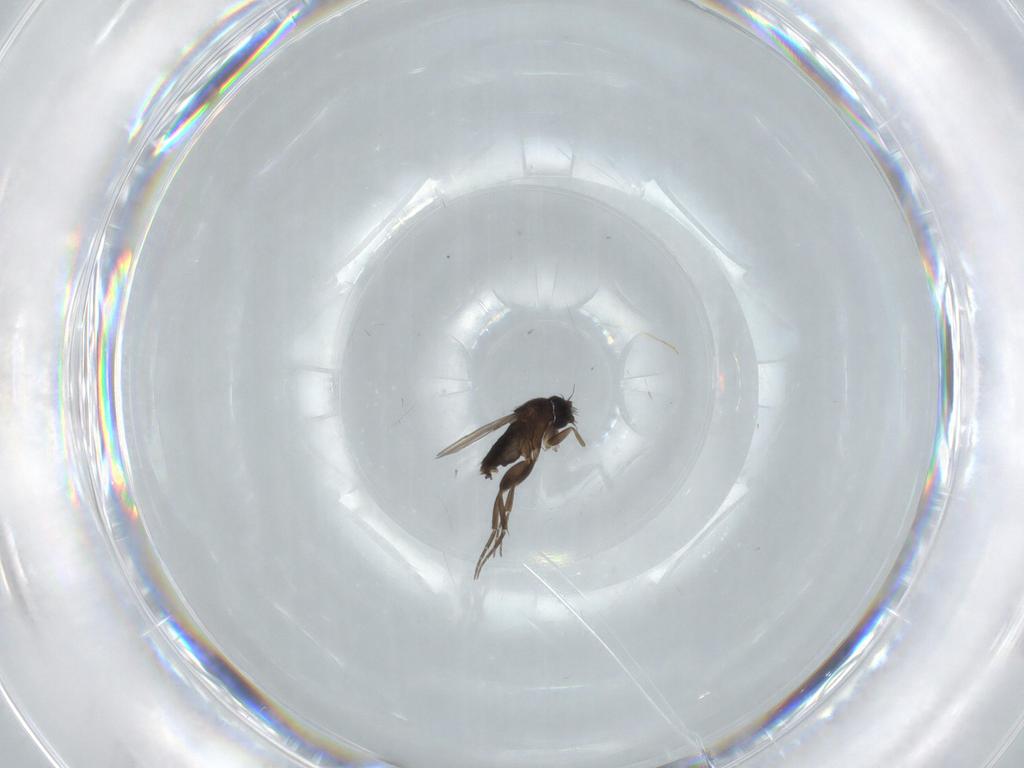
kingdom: Animalia
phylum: Arthropoda
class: Insecta
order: Diptera
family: Phoridae
